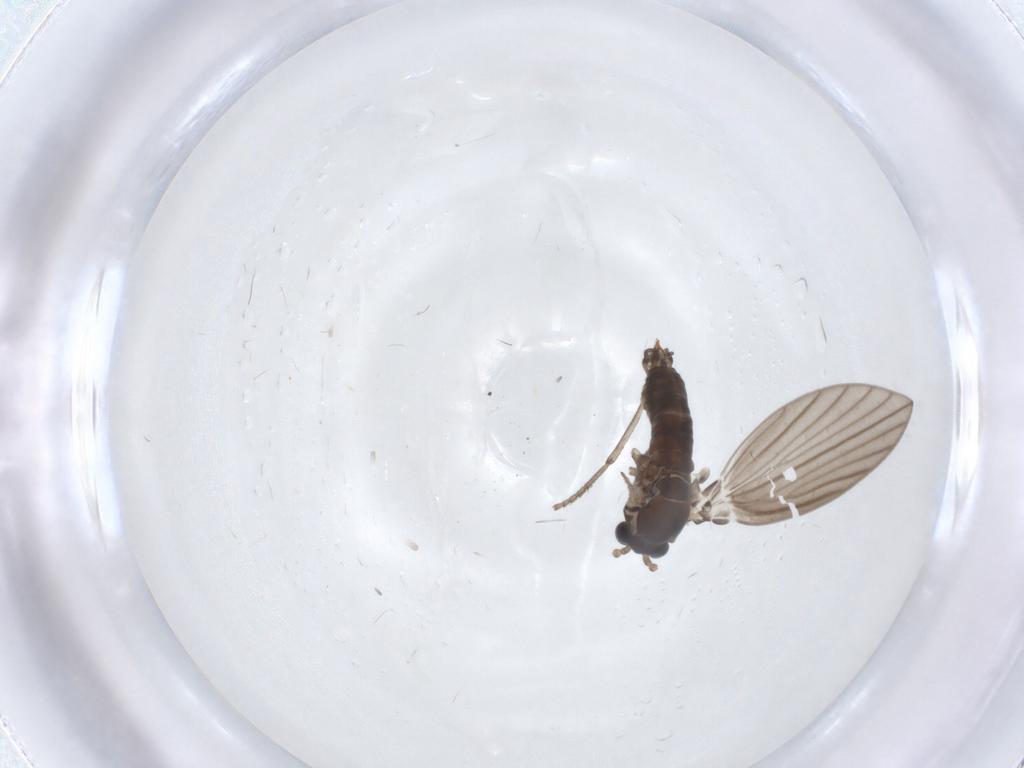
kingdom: Animalia
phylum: Arthropoda
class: Insecta
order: Diptera
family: Psychodidae
